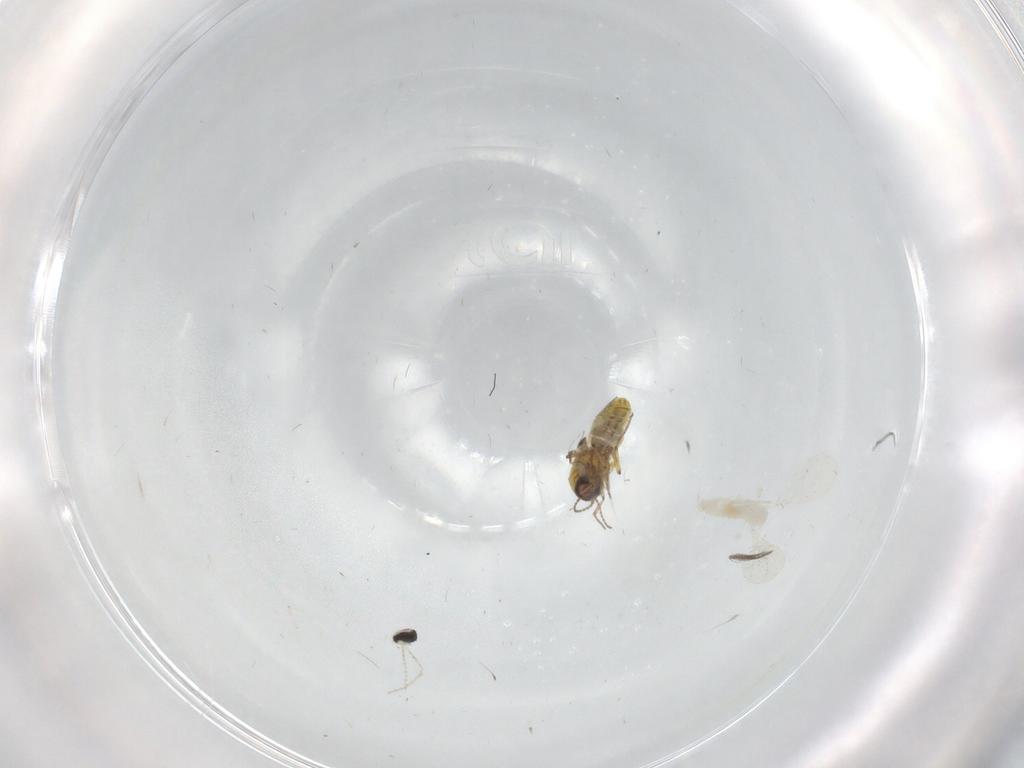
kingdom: Animalia
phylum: Arthropoda
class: Insecta
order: Diptera
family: Ceratopogonidae
